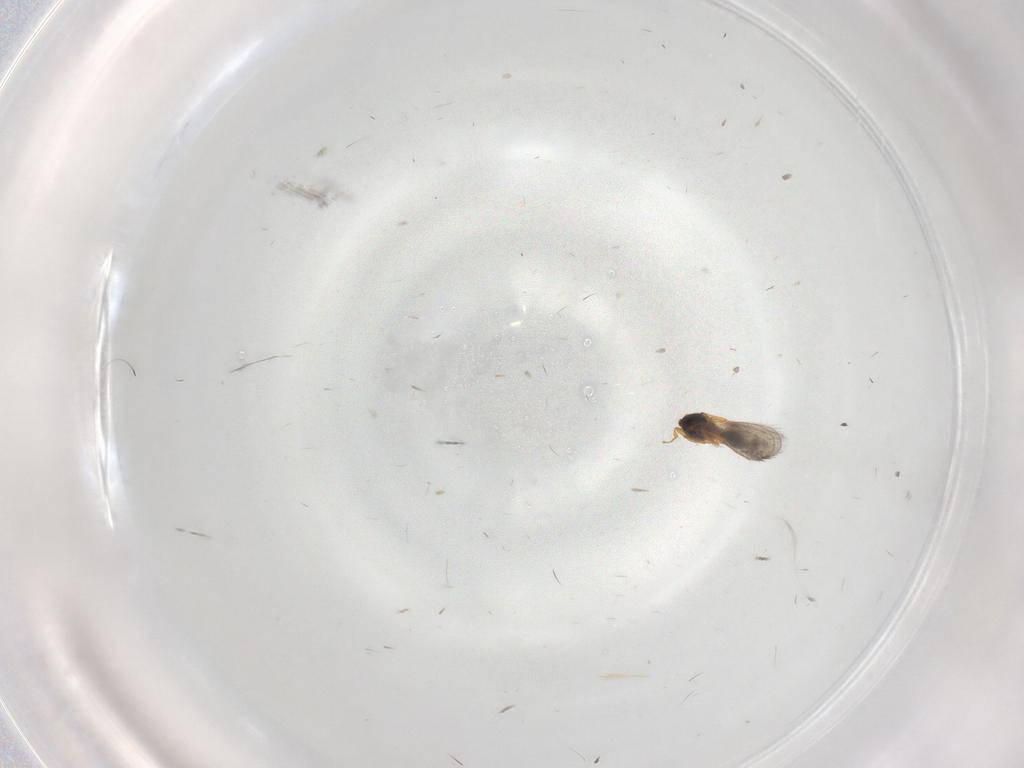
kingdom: Animalia
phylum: Arthropoda
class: Insecta
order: Hymenoptera
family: Platygastridae
